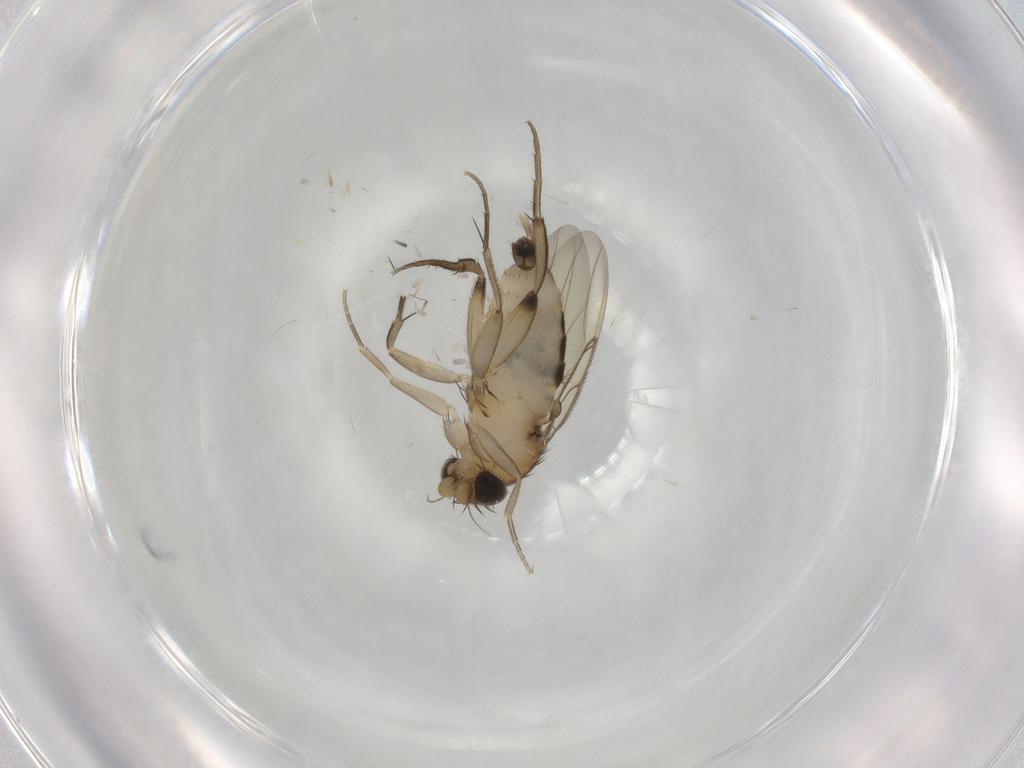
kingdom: Animalia
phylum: Arthropoda
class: Insecta
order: Diptera
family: Phoridae
